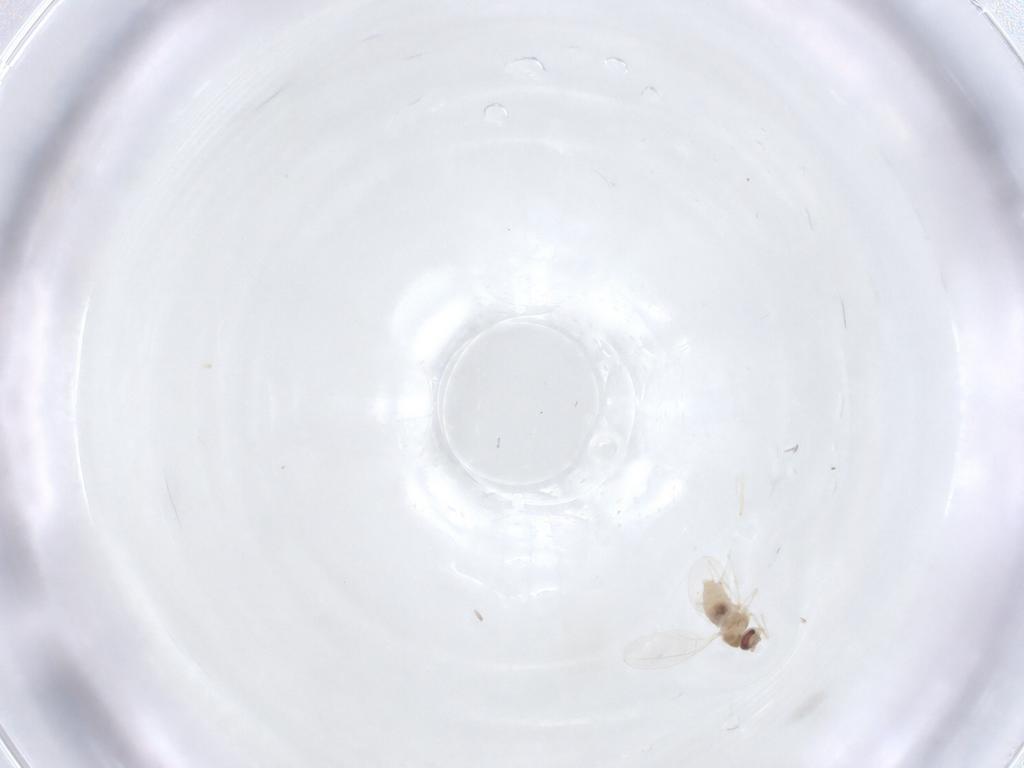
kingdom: Animalia
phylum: Arthropoda
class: Insecta
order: Diptera
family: Cecidomyiidae
